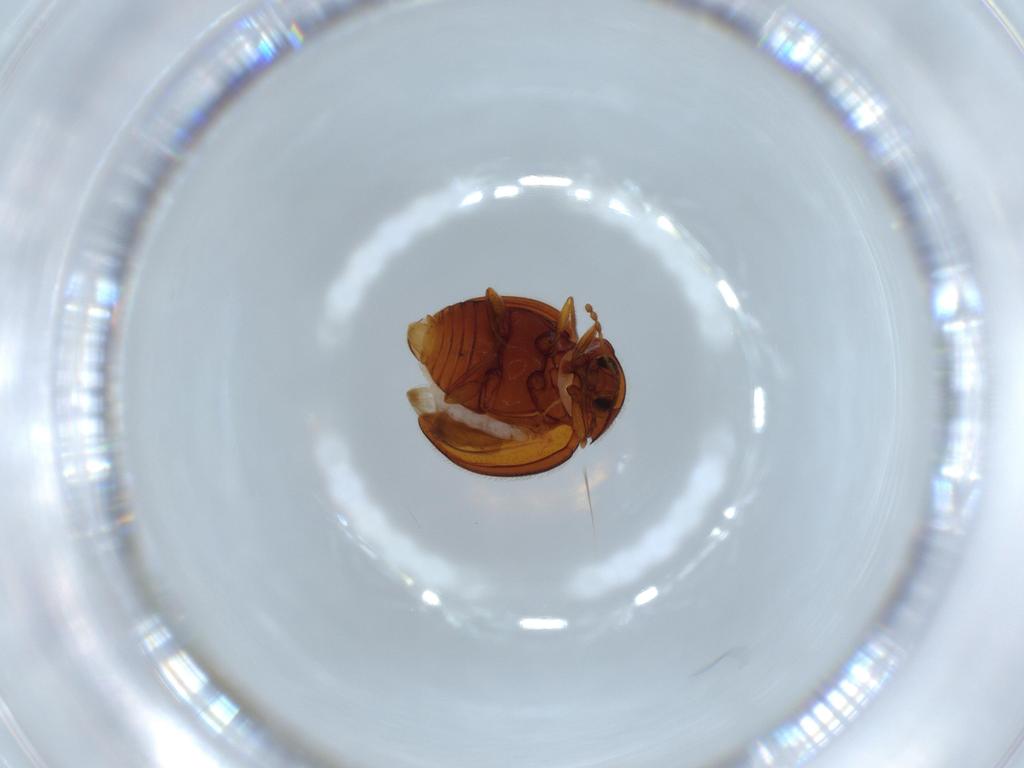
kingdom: Animalia
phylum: Arthropoda
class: Insecta
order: Coleoptera
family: Anamorphidae
